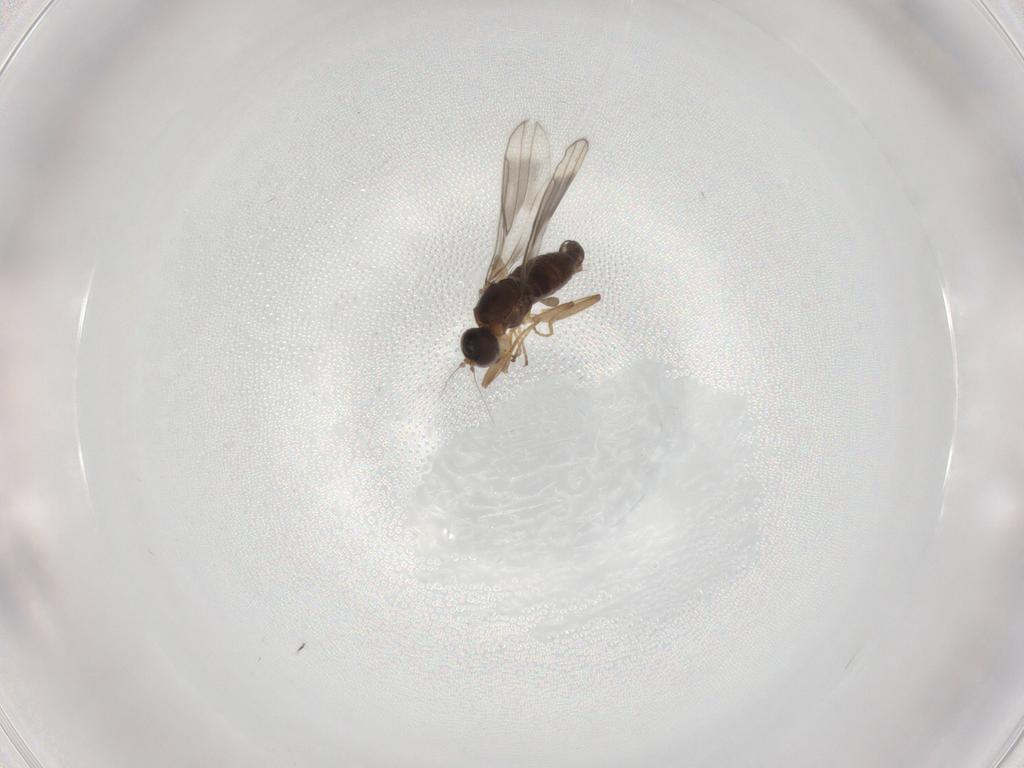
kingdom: Animalia
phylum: Arthropoda
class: Insecta
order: Diptera
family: Hybotidae
